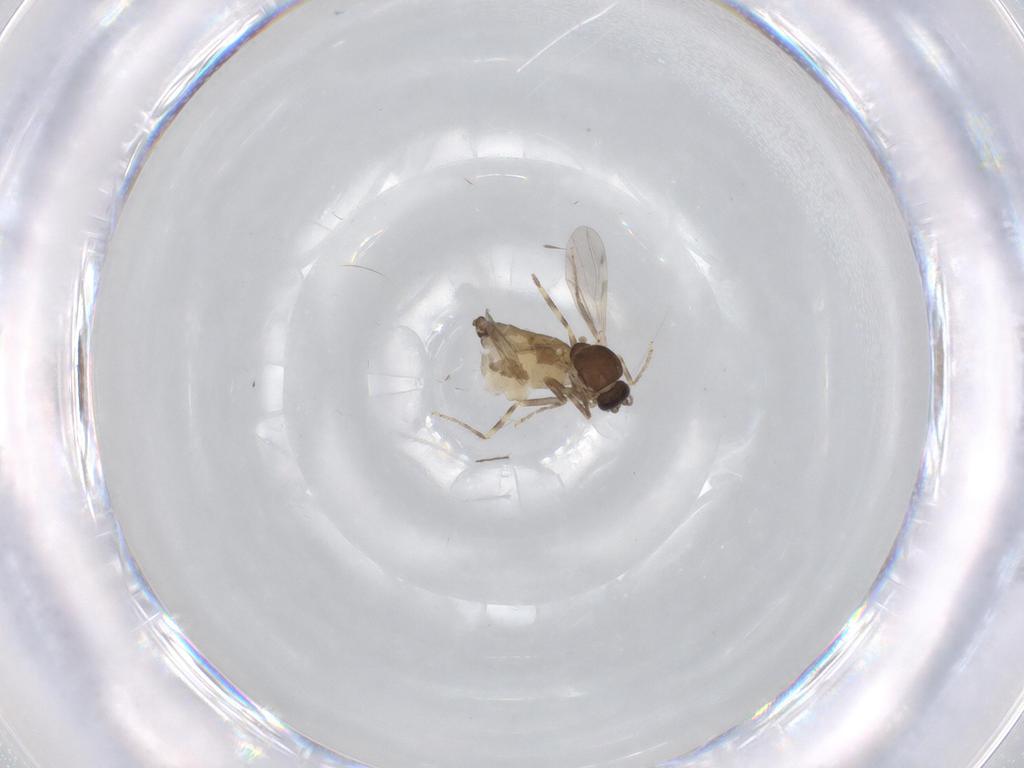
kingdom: Animalia
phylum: Arthropoda
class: Insecta
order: Diptera
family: Ceratopogonidae
